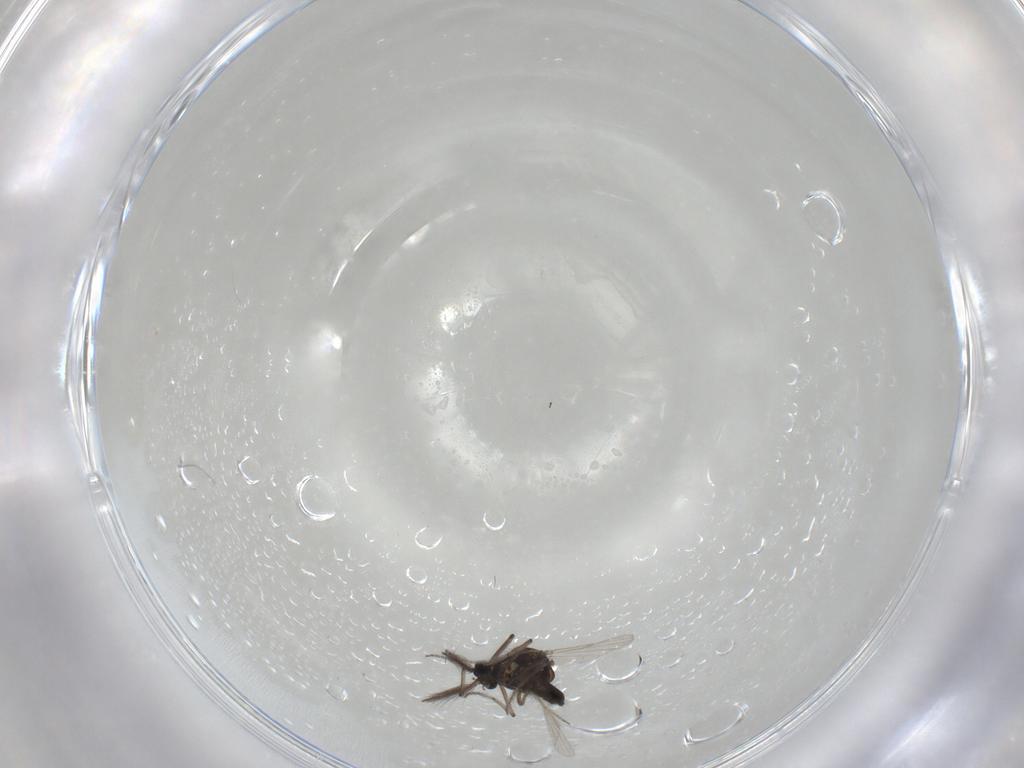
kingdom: Animalia
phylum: Arthropoda
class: Insecta
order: Diptera
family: Ceratopogonidae
